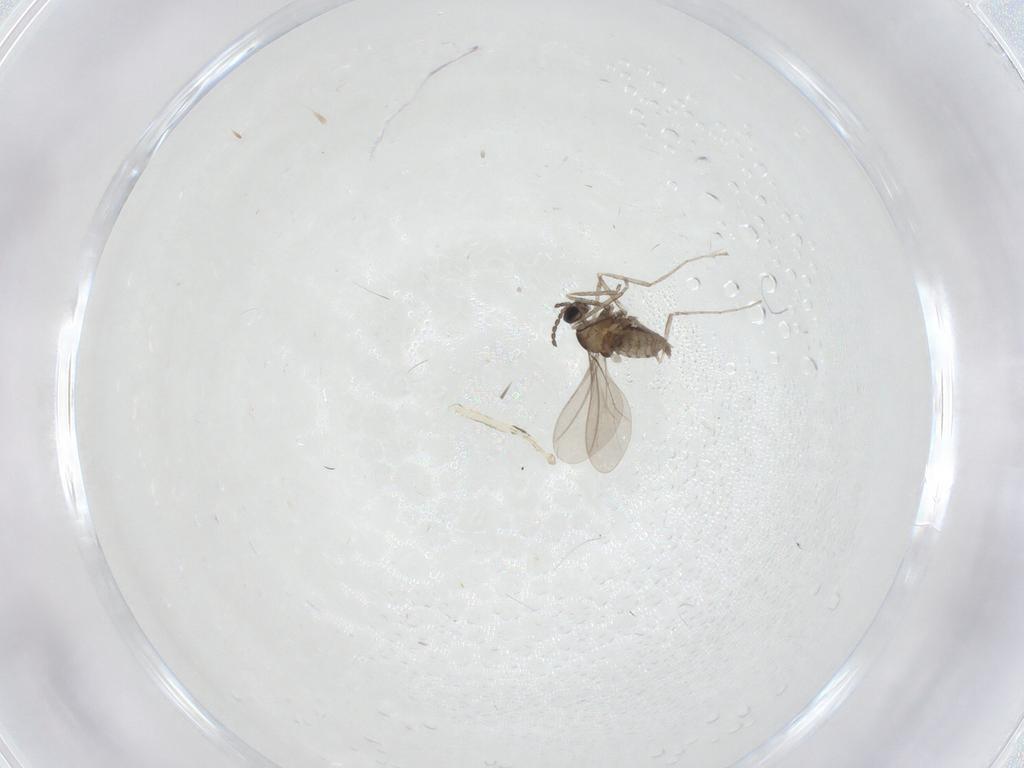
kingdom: Animalia
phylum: Arthropoda
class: Insecta
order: Diptera
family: Cecidomyiidae
